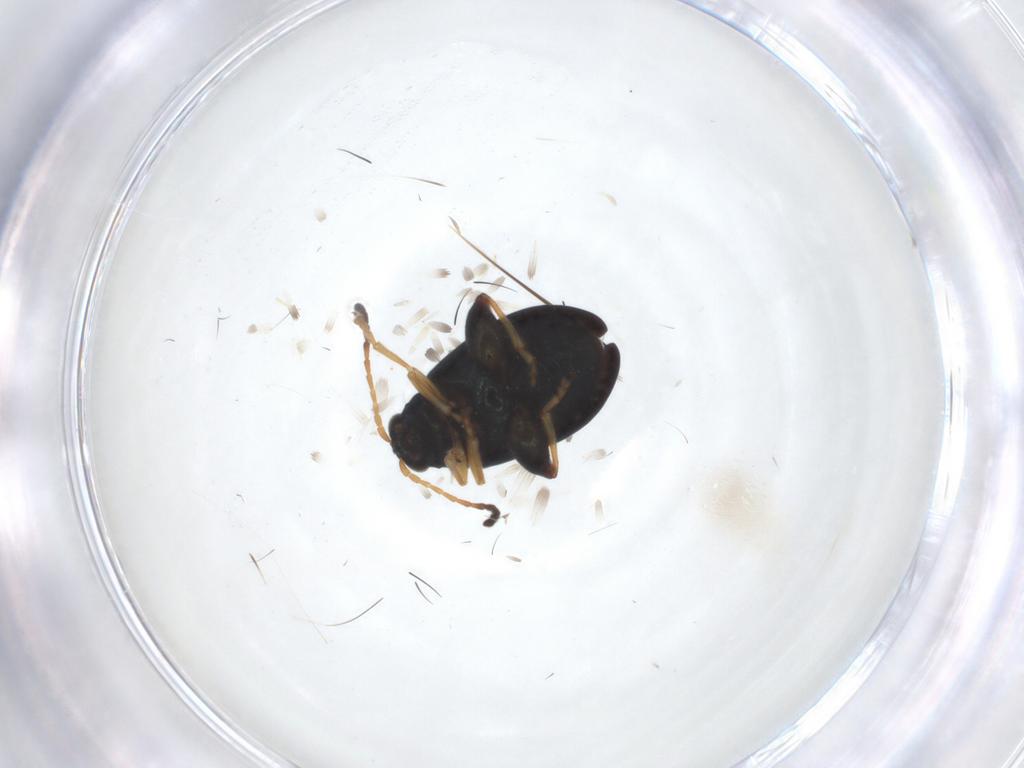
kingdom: Animalia
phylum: Arthropoda
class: Insecta
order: Coleoptera
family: Chrysomelidae
